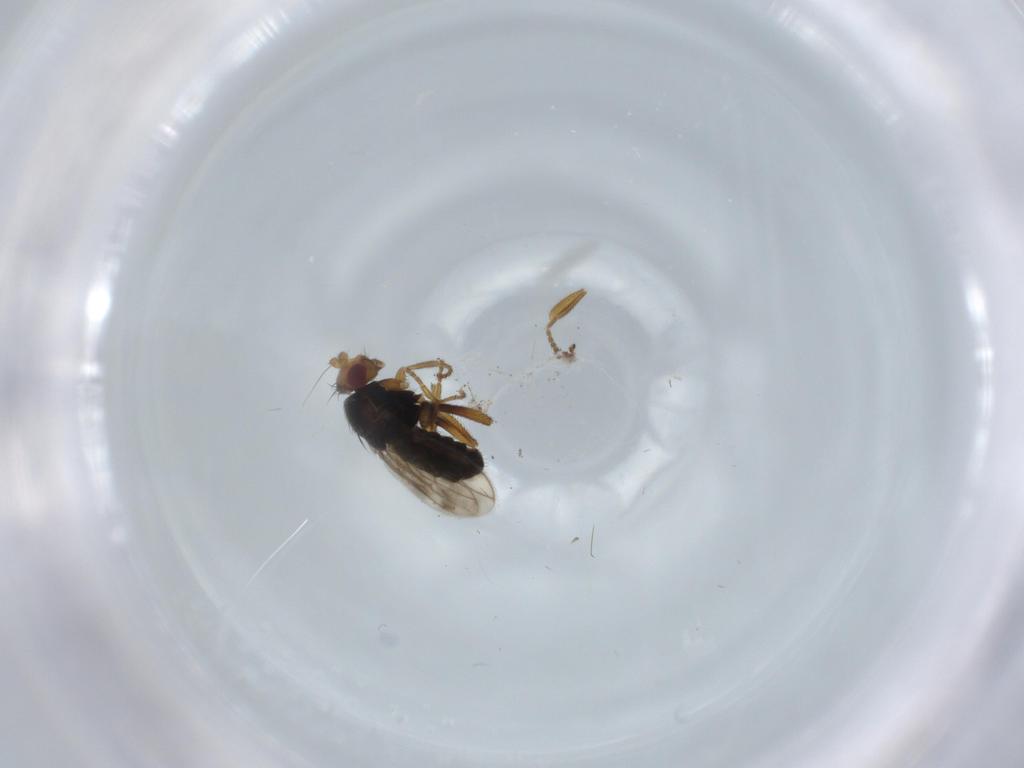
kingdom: Animalia
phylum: Arthropoda
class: Insecta
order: Diptera
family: Sphaeroceridae
